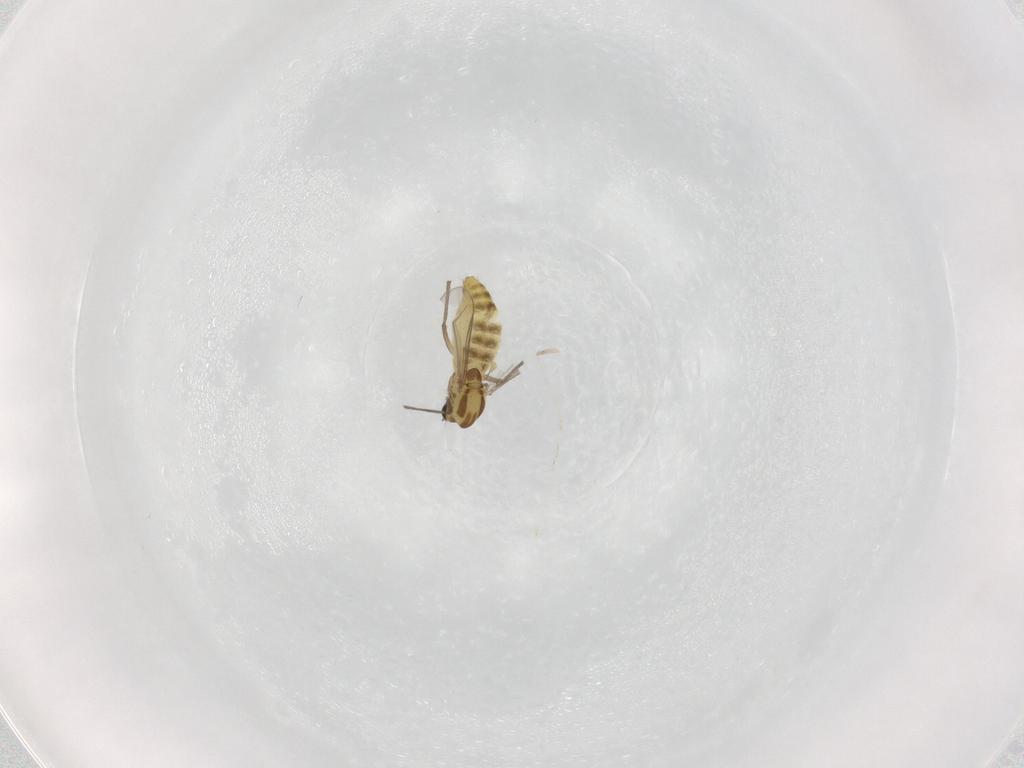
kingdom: Animalia
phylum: Arthropoda
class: Insecta
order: Diptera
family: Chironomidae
